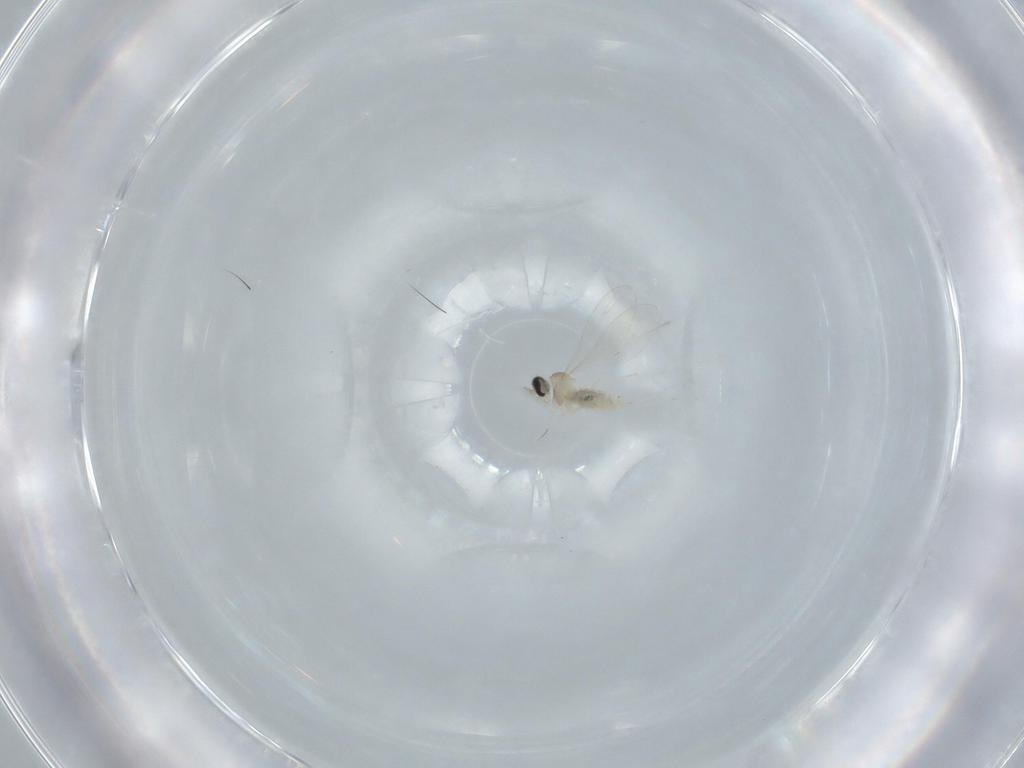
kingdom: Animalia
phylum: Arthropoda
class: Insecta
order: Diptera
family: Cecidomyiidae
